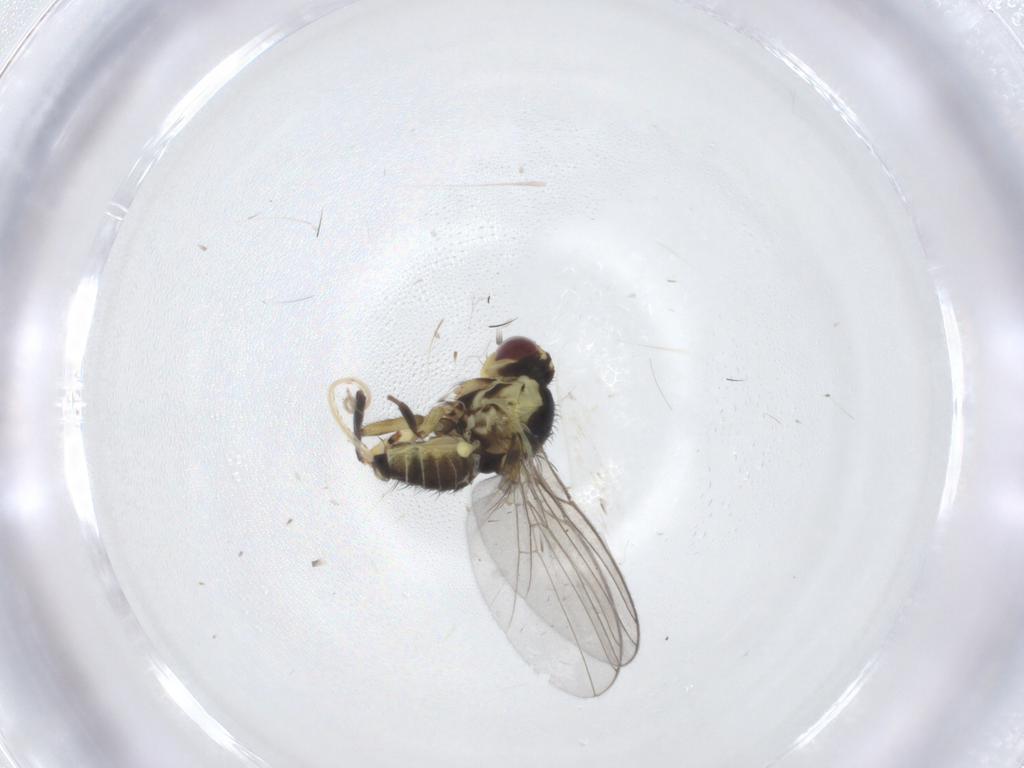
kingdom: Animalia
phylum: Arthropoda
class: Insecta
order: Diptera
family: Agromyzidae
